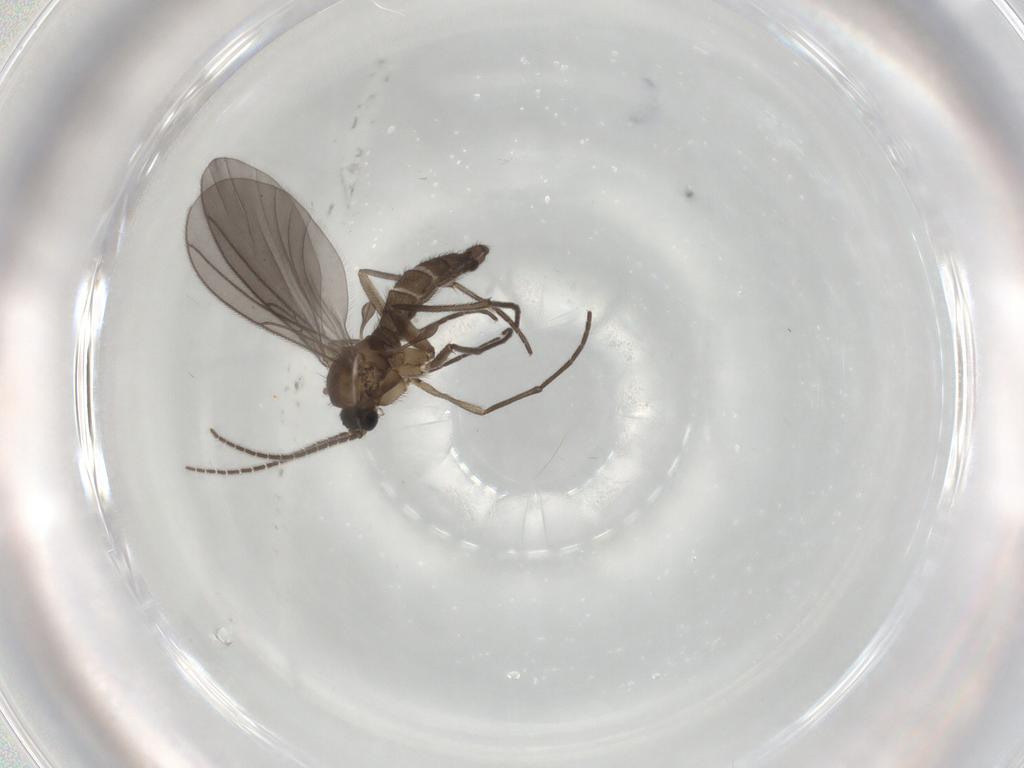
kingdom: Animalia
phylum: Arthropoda
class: Insecta
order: Diptera
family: Sciaridae
